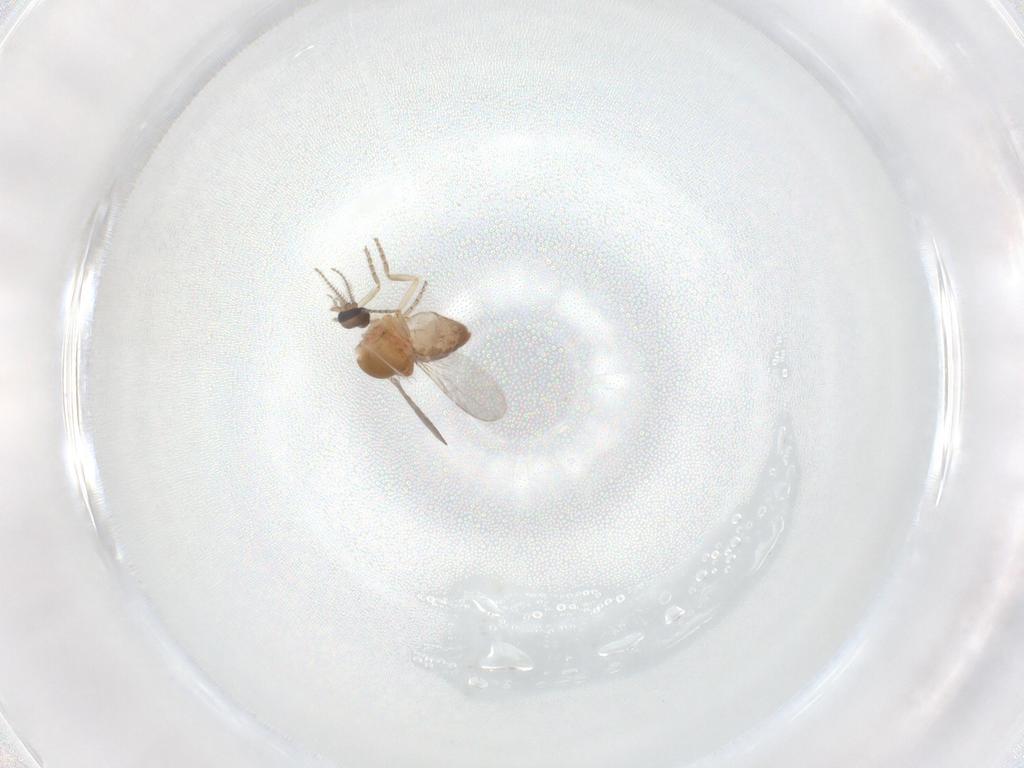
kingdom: Animalia
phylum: Arthropoda
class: Insecta
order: Diptera
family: Ceratopogonidae
